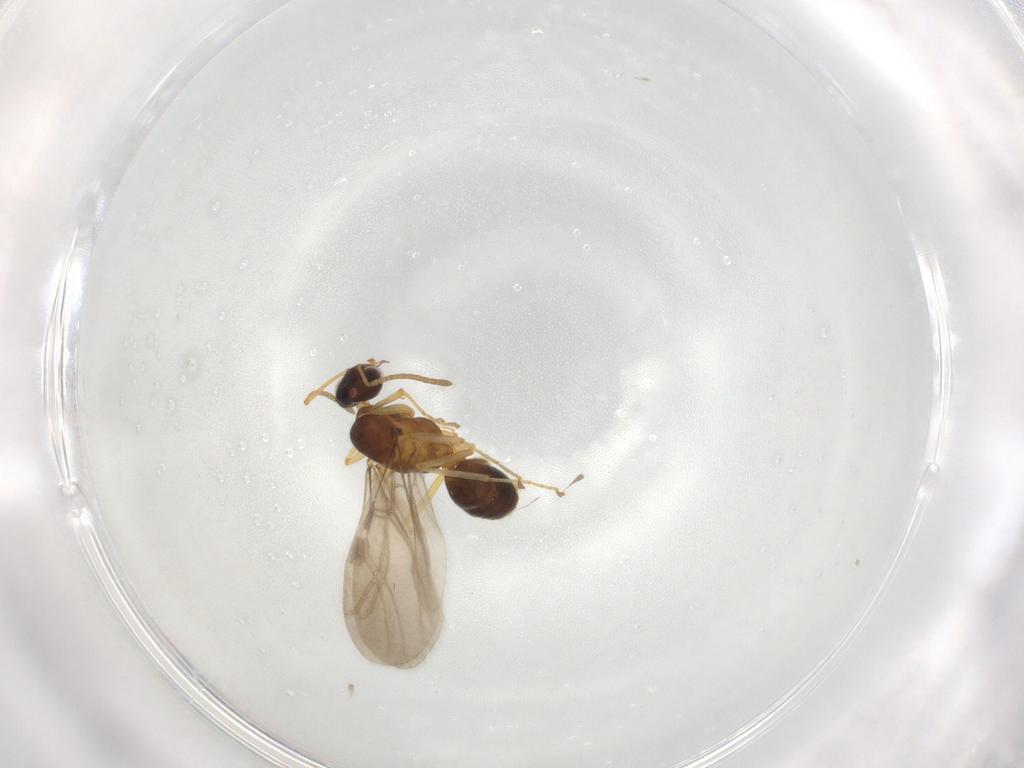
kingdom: Animalia
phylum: Arthropoda
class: Insecta
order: Hymenoptera
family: Formicidae
